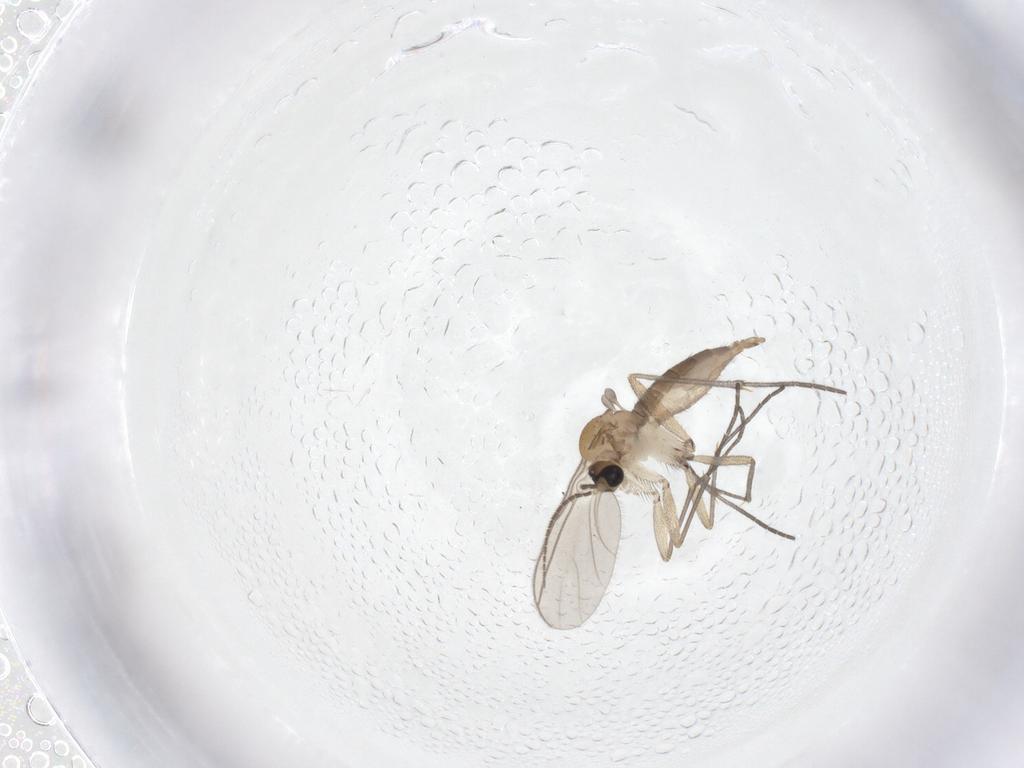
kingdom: Animalia
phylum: Arthropoda
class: Insecta
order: Diptera
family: Sciaridae
